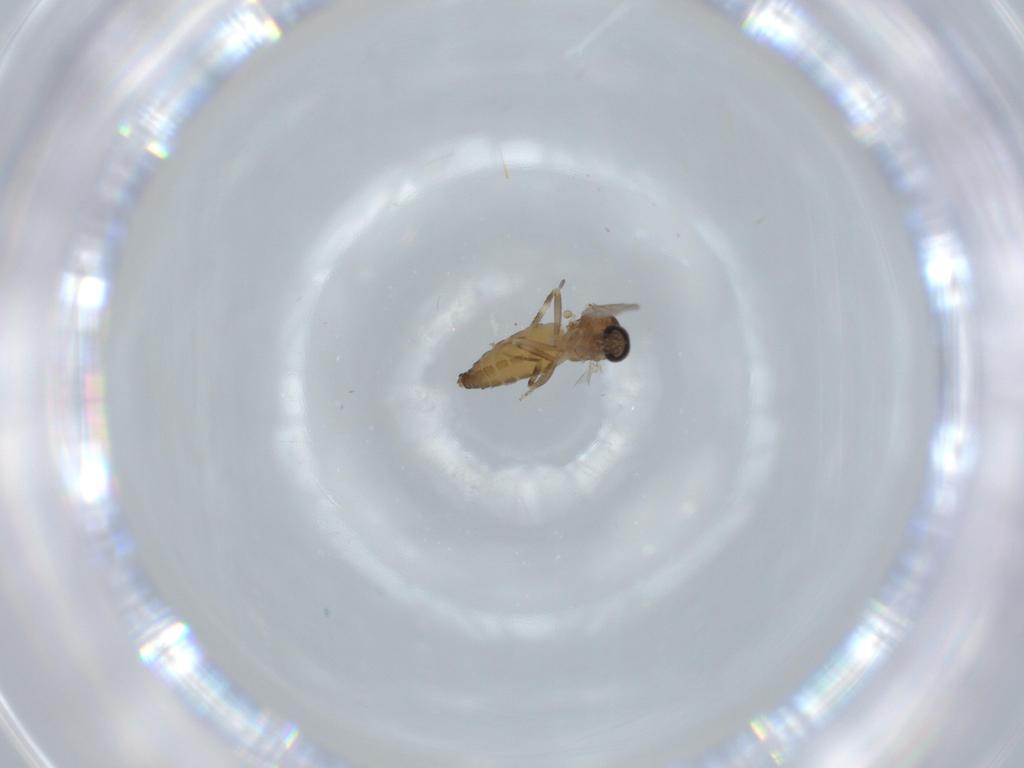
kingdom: Animalia
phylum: Arthropoda
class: Insecta
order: Diptera
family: Ceratopogonidae
